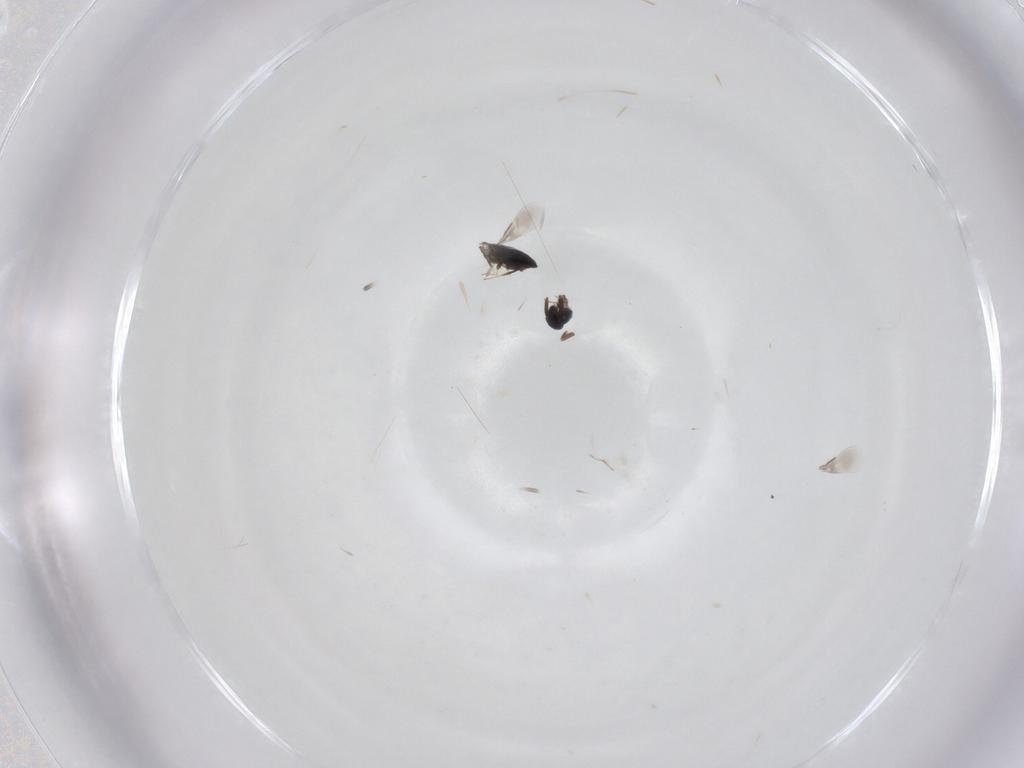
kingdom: Animalia
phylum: Arthropoda
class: Insecta
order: Hymenoptera
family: Signiphoridae
